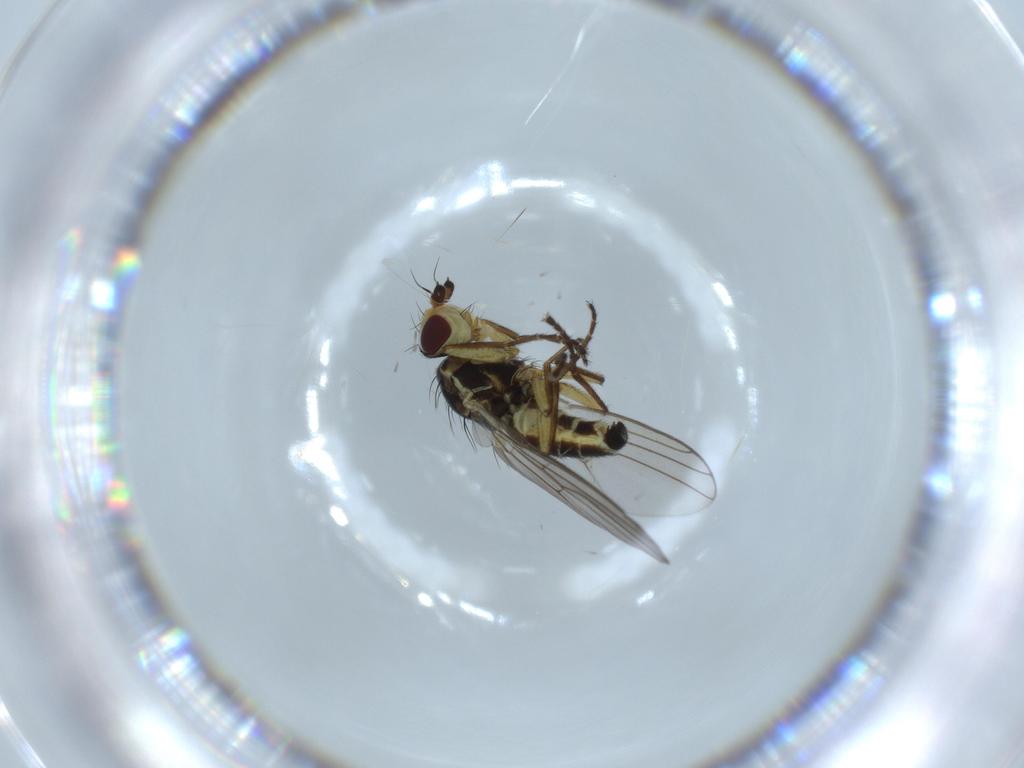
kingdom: Animalia
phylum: Arthropoda
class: Insecta
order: Diptera
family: Agromyzidae
